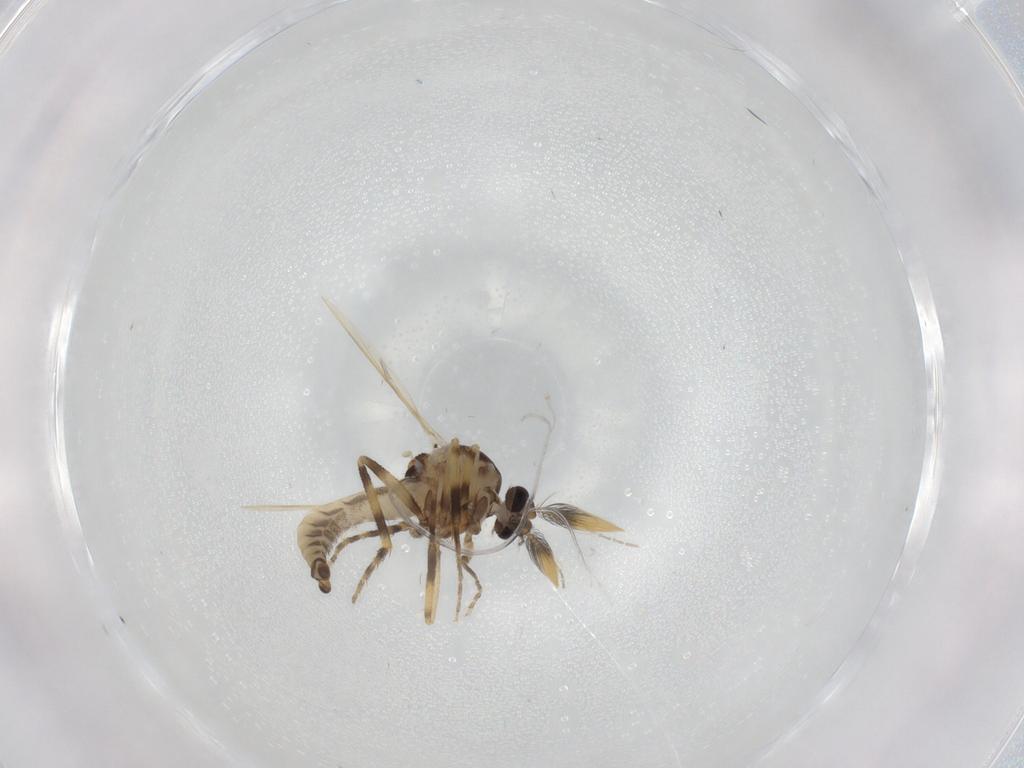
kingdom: Animalia
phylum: Arthropoda
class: Insecta
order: Diptera
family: Ceratopogonidae
